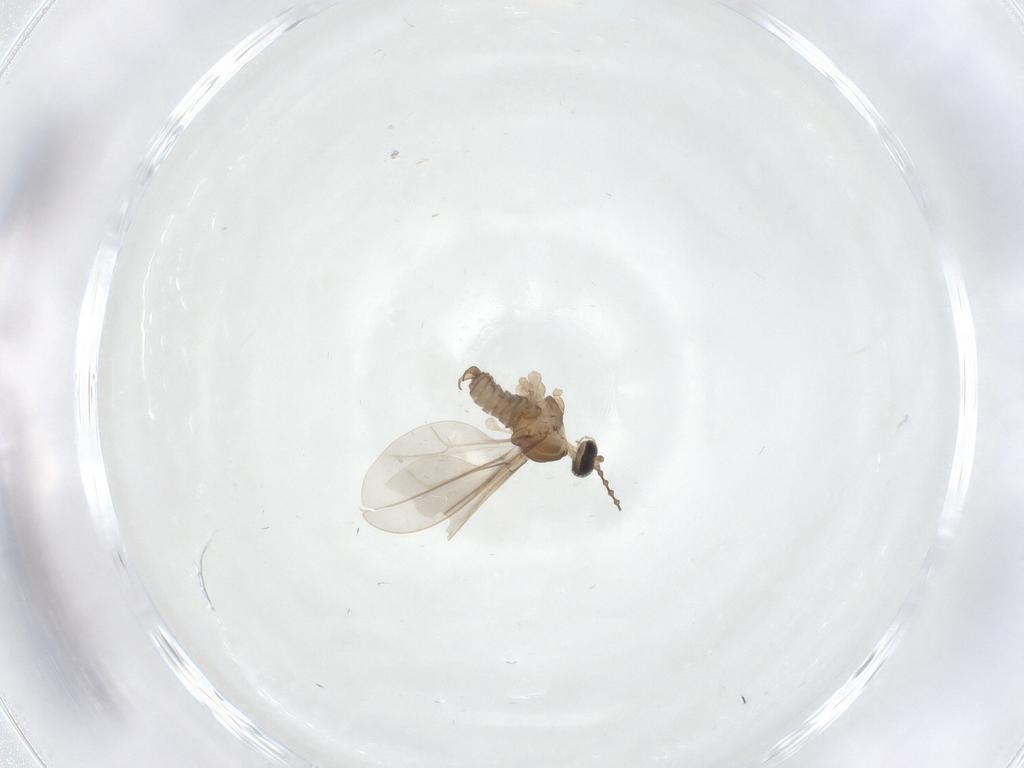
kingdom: Animalia
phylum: Arthropoda
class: Insecta
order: Diptera
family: Cecidomyiidae
